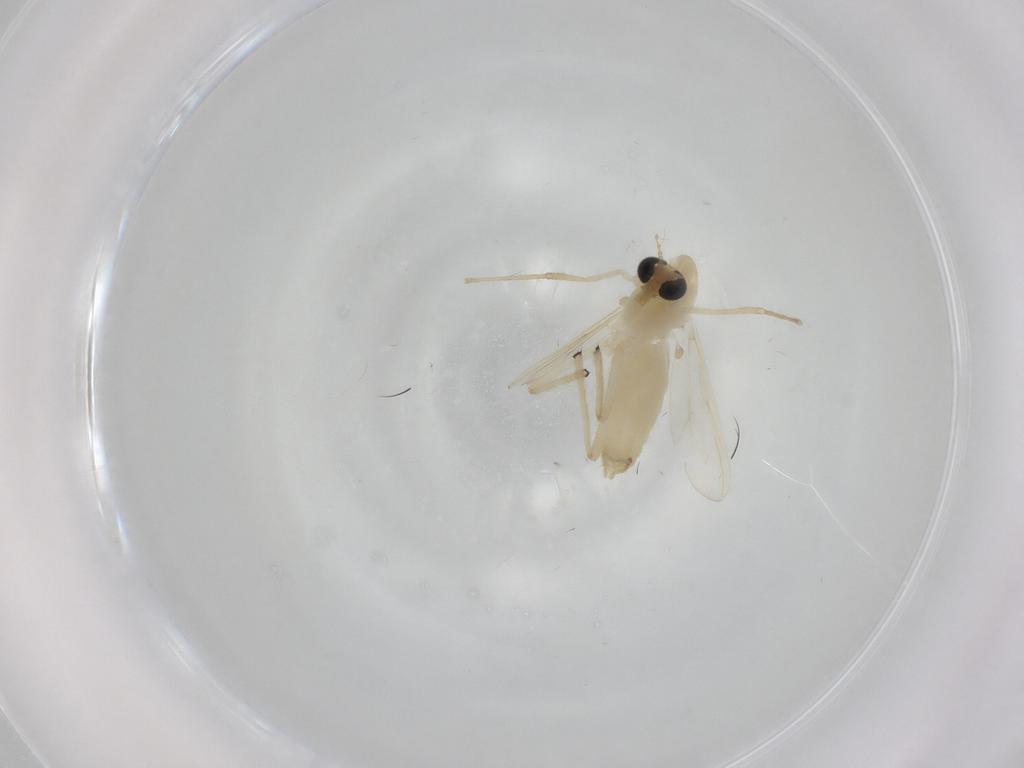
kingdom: Animalia
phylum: Arthropoda
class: Insecta
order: Diptera
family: Chironomidae
